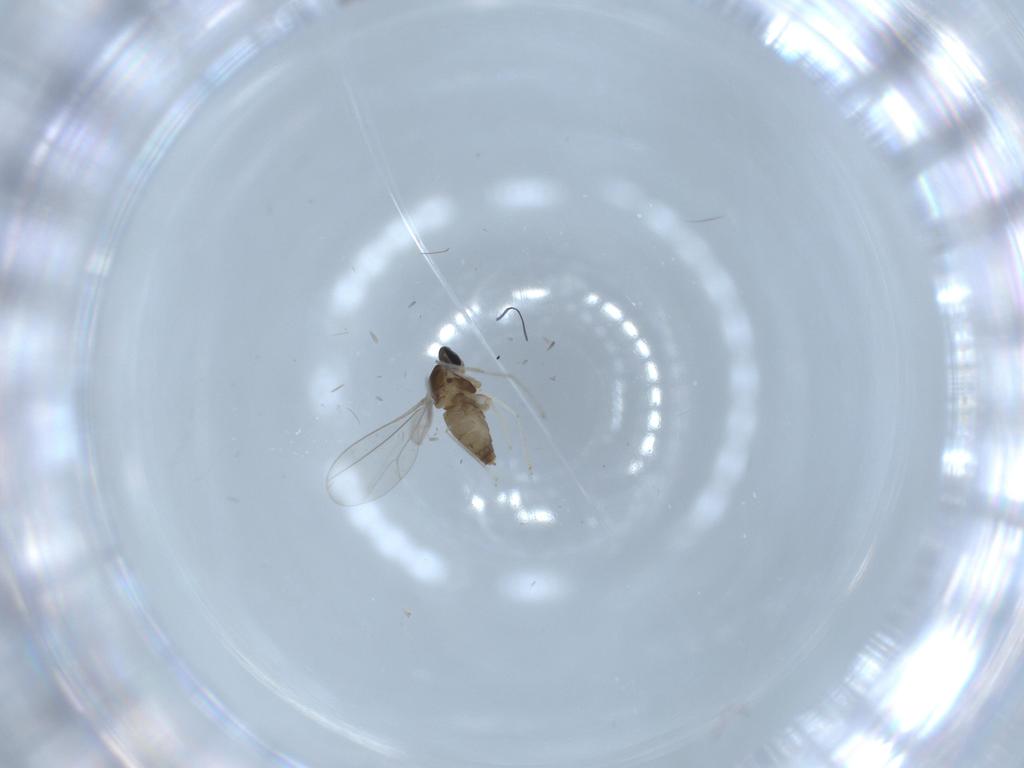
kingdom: Animalia
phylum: Arthropoda
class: Insecta
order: Diptera
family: Cecidomyiidae
